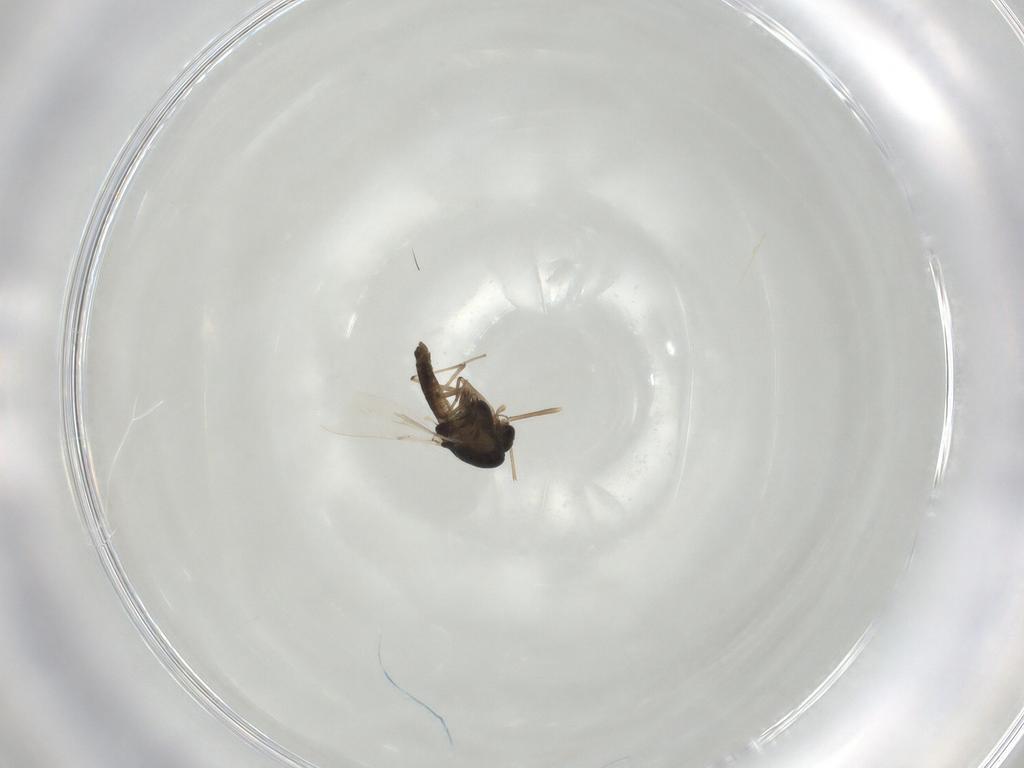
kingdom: Animalia
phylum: Arthropoda
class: Insecta
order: Diptera
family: Chironomidae
